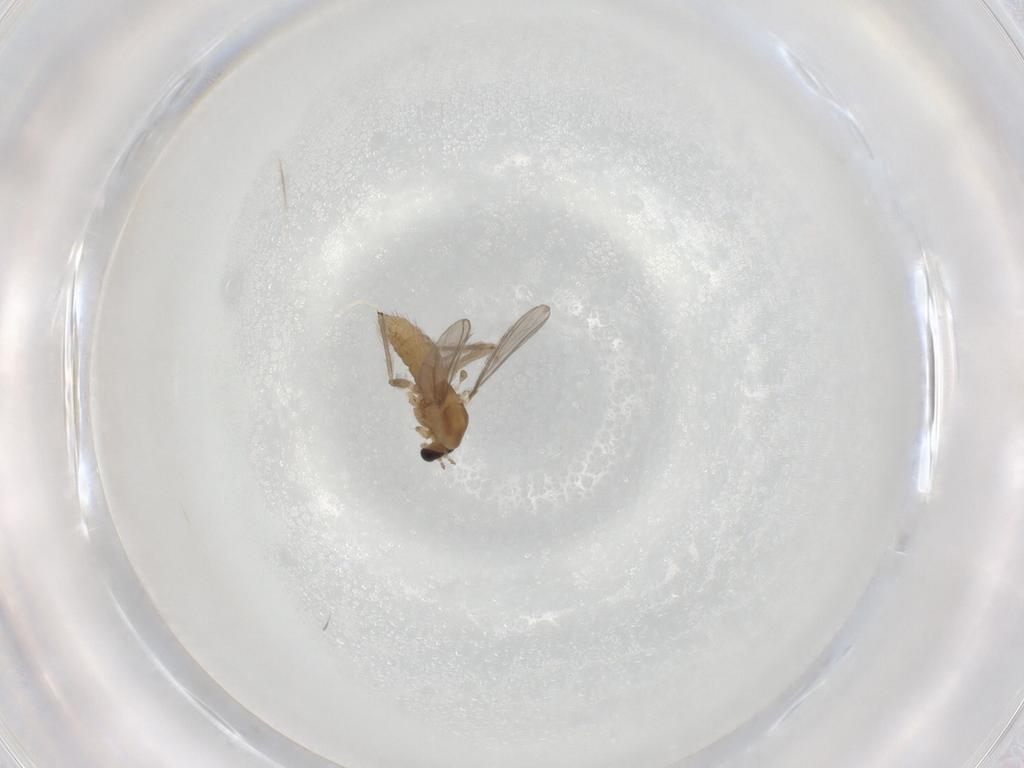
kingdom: Animalia
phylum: Arthropoda
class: Insecta
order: Diptera
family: Chironomidae
